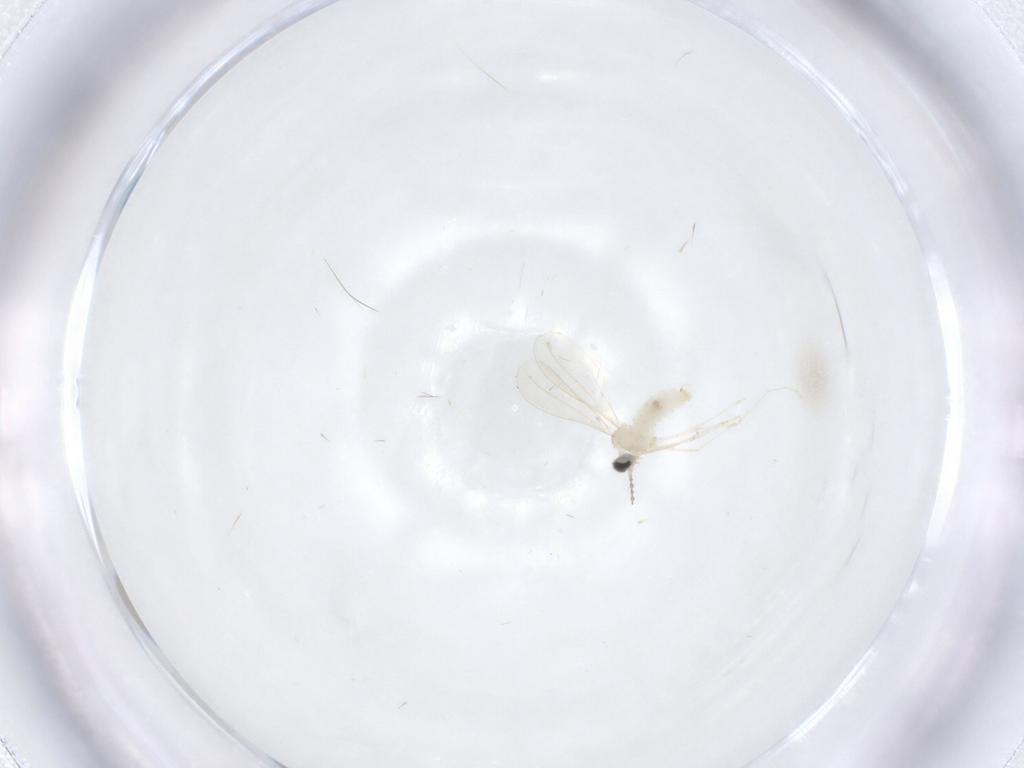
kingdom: Animalia
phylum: Arthropoda
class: Insecta
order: Diptera
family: Cecidomyiidae
